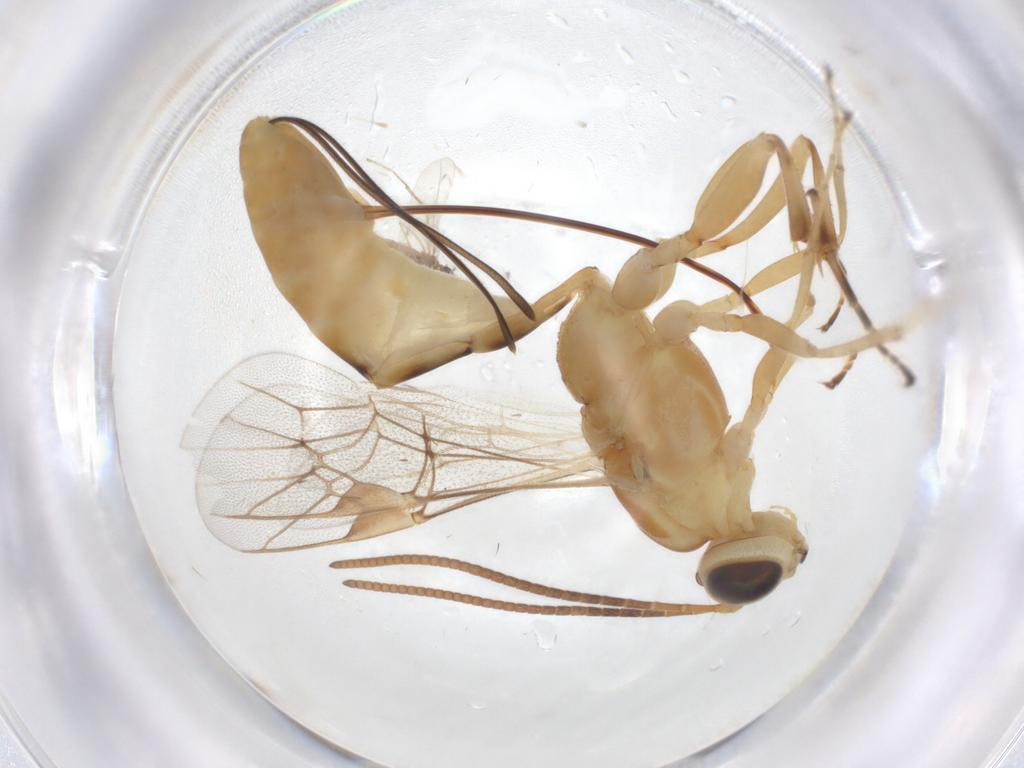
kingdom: Animalia
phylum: Arthropoda
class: Insecta
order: Hymenoptera
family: Ichneumonidae
